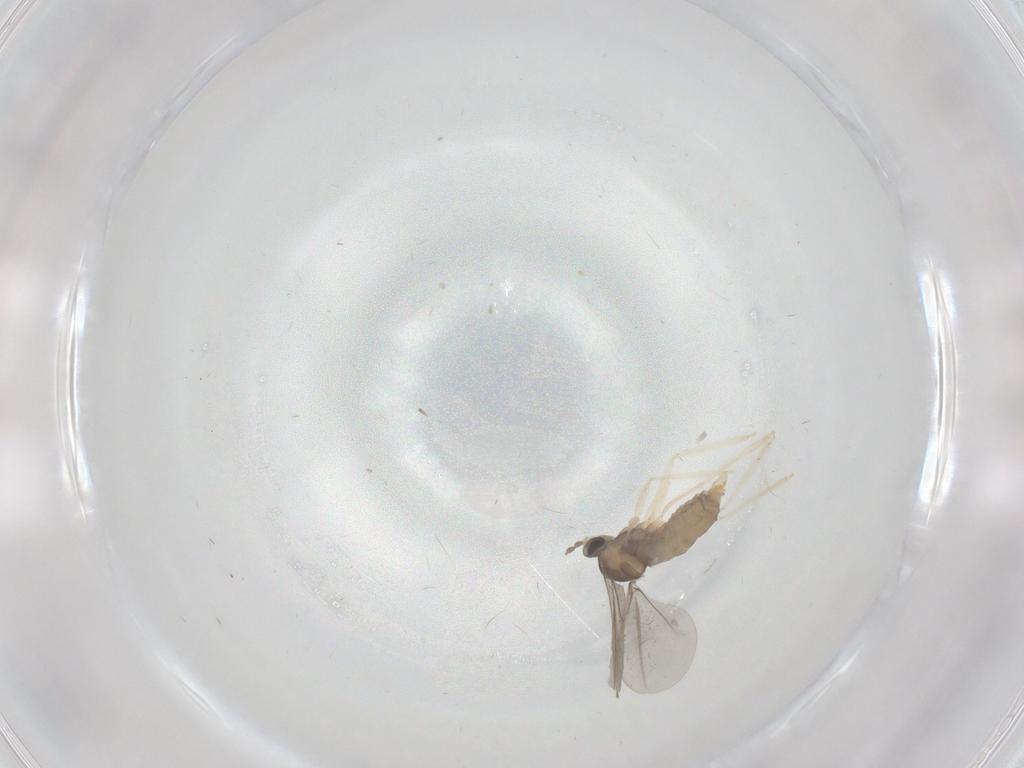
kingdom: Animalia
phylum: Arthropoda
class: Insecta
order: Diptera
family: Cecidomyiidae
